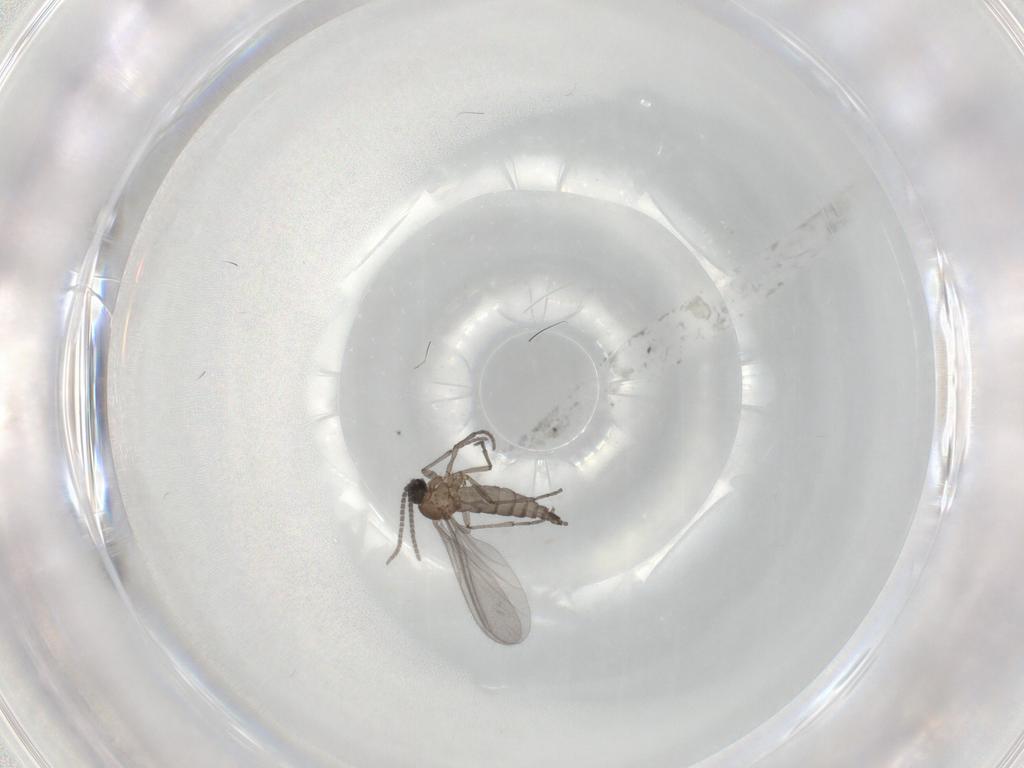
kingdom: Animalia
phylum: Arthropoda
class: Insecta
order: Diptera
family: Sciaridae
